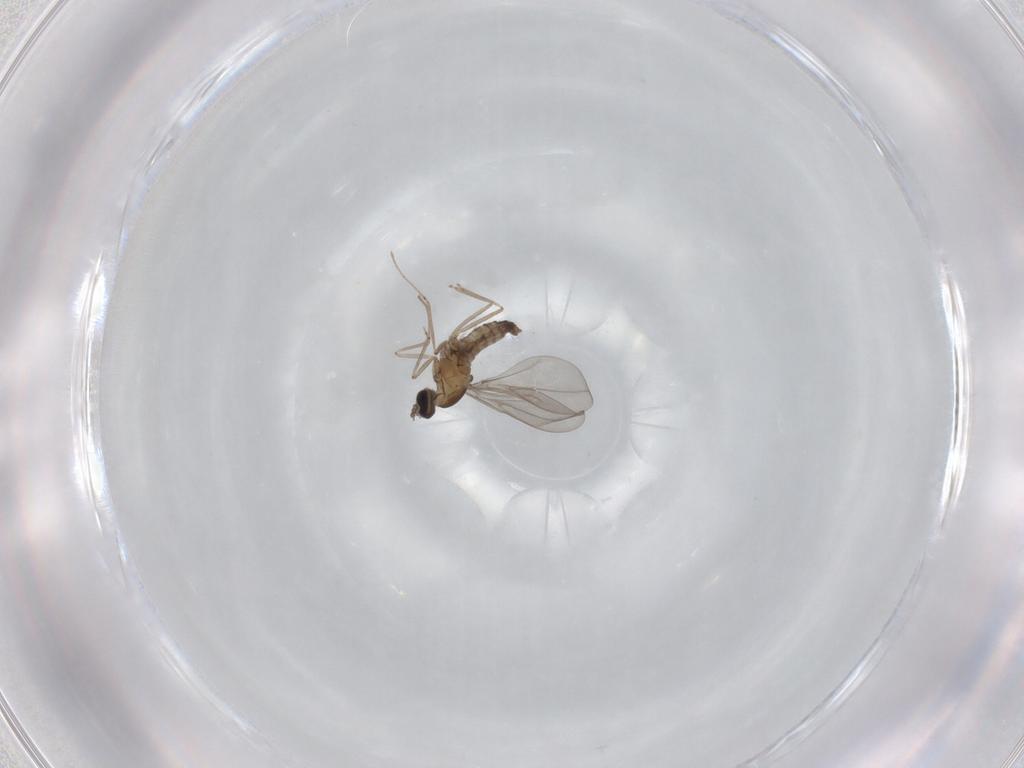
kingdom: Animalia
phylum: Arthropoda
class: Insecta
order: Diptera
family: Cecidomyiidae
